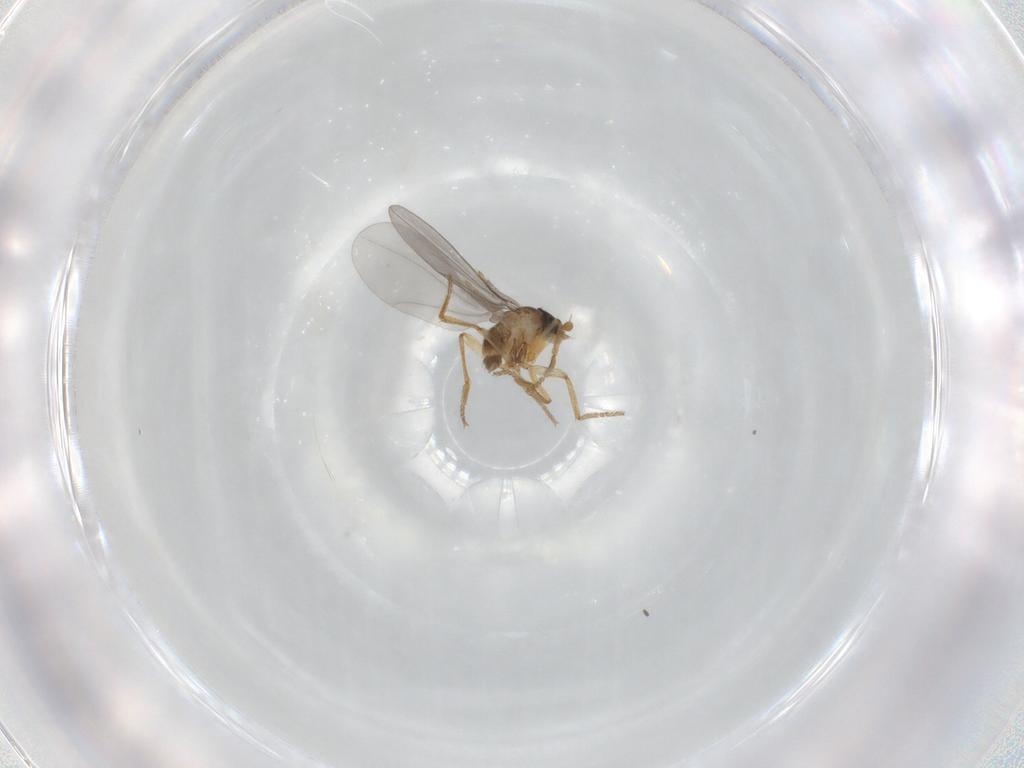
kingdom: Animalia
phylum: Arthropoda
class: Insecta
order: Diptera
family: Phoridae
